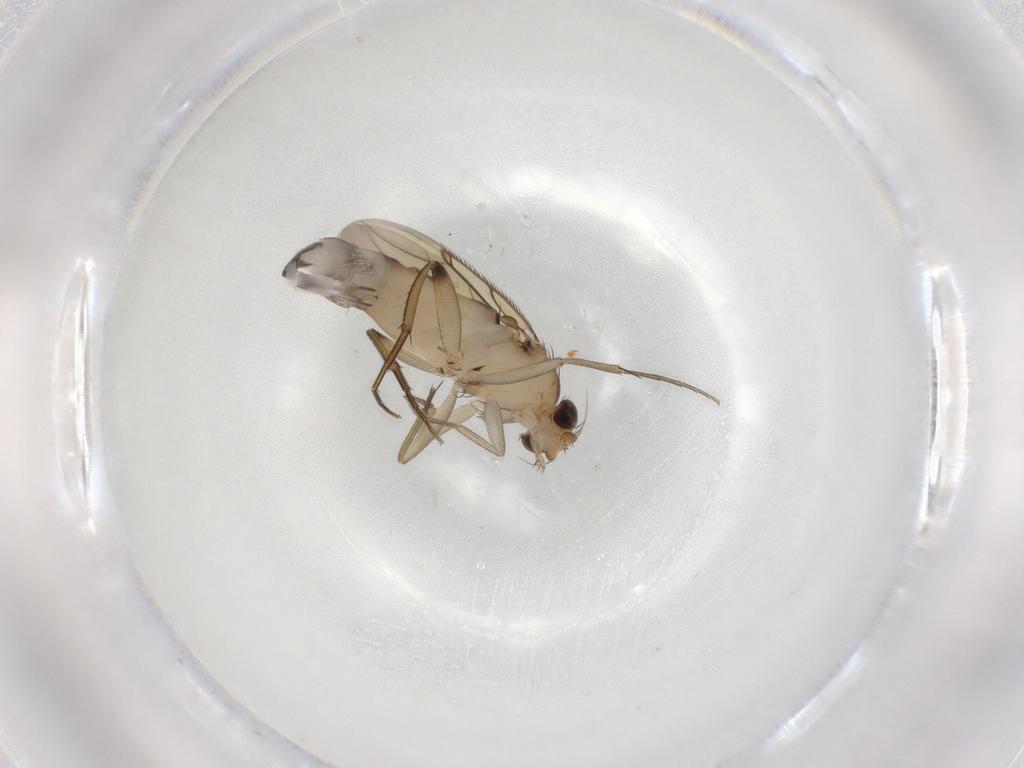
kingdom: Animalia
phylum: Arthropoda
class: Insecta
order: Diptera
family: Phoridae
